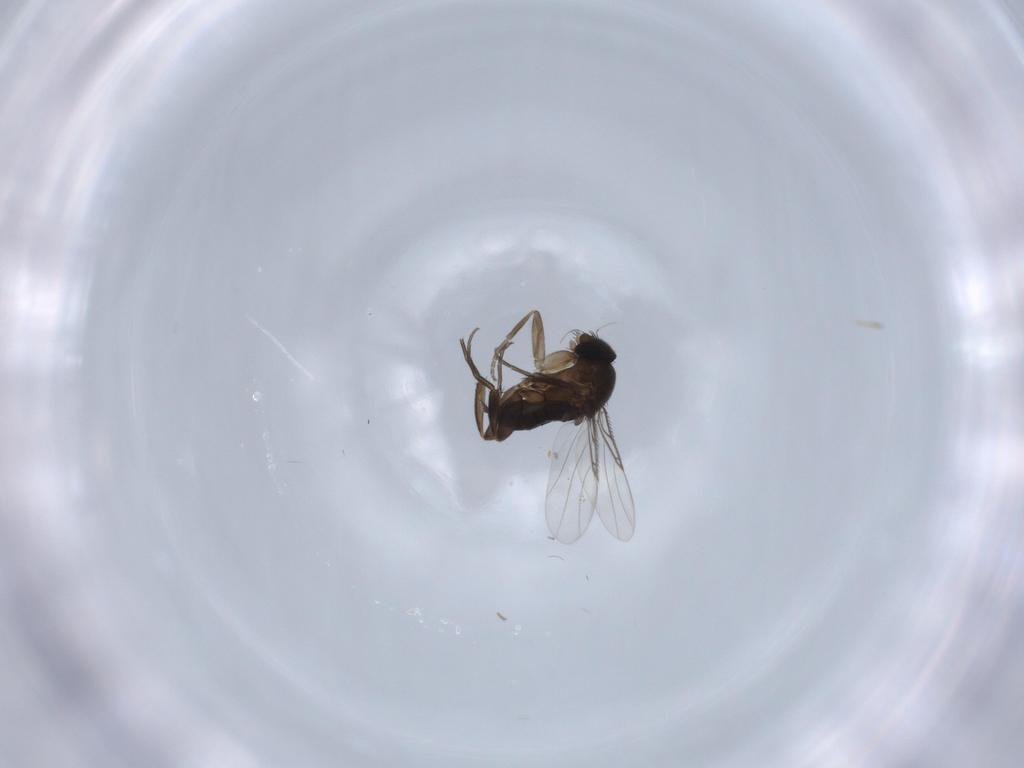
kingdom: Animalia
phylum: Arthropoda
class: Insecta
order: Diptera
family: Phoridae
